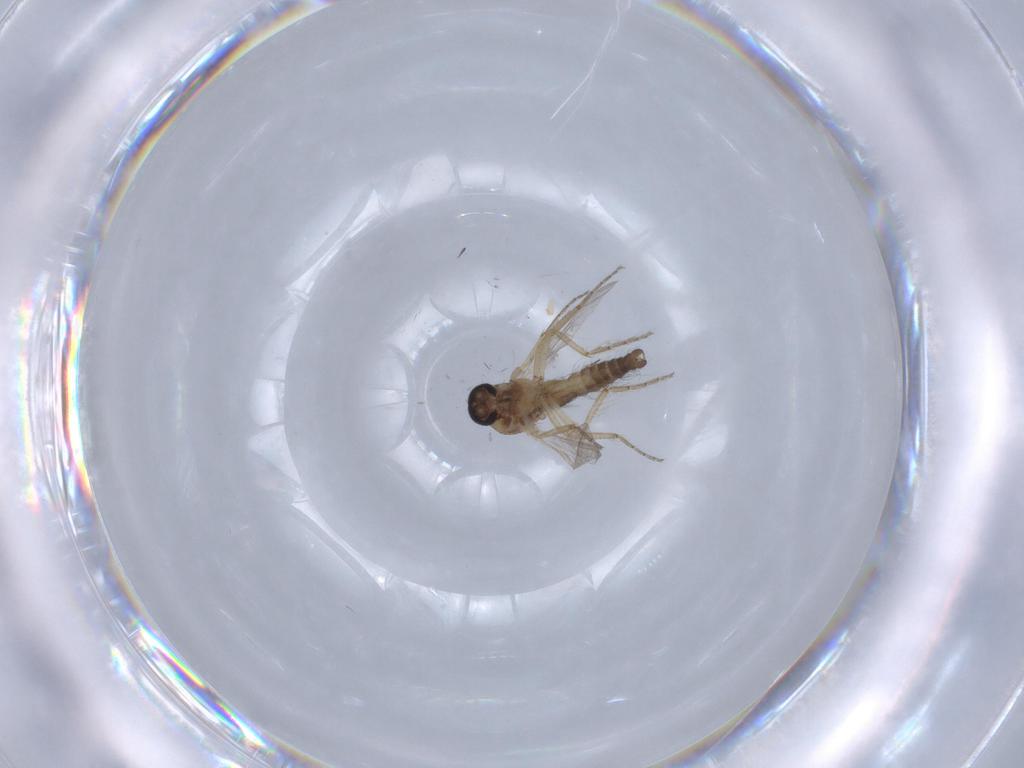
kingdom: Animalia
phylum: Arthropoda
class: Insecta
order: Diptera
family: Ceratopogonidae
